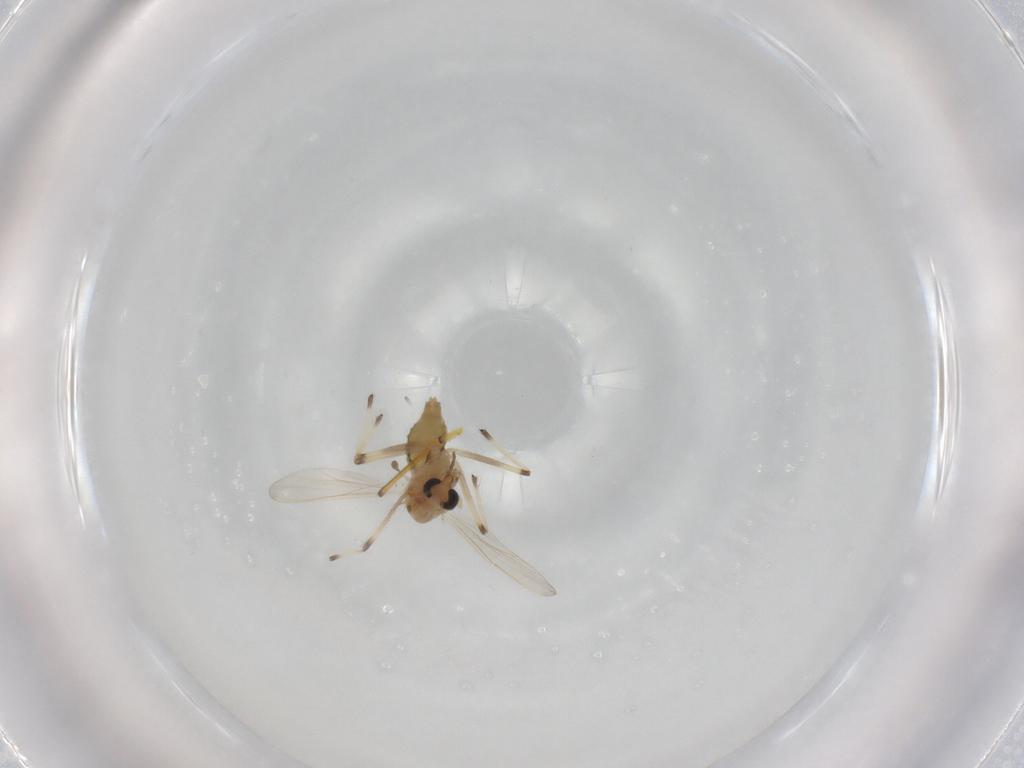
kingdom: Animalia
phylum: Arthropoda
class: Insecta
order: Diptera
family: Chironomidae
